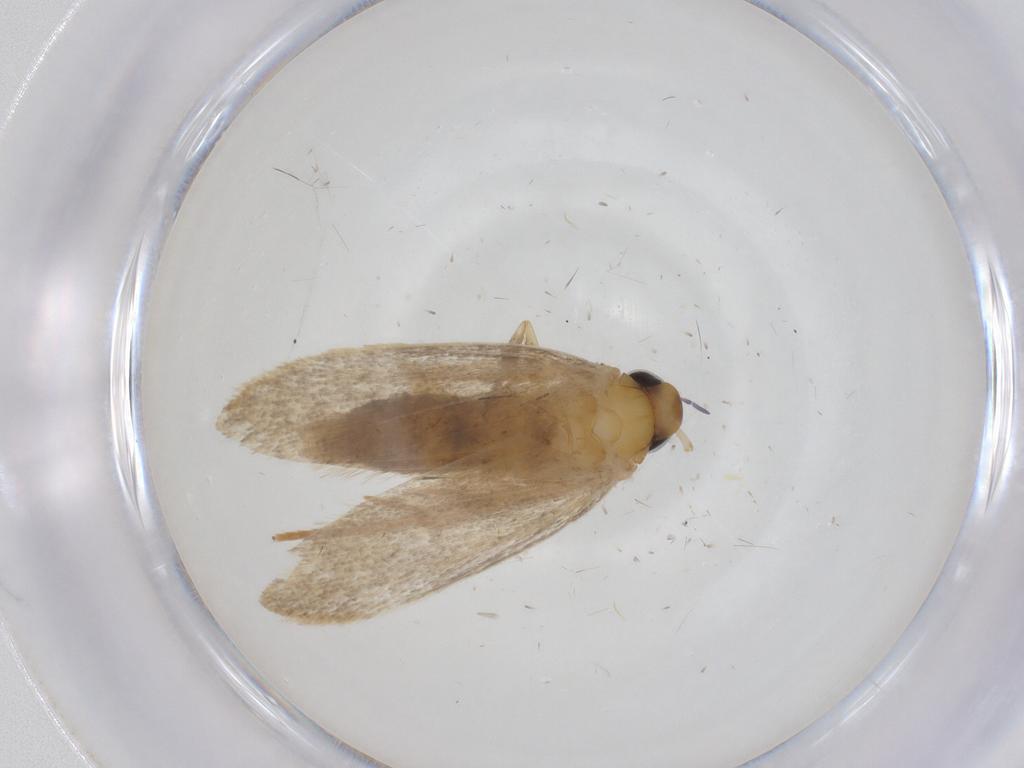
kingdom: Animalia
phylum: Arthropoda
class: Insecta
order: Lepidoptera
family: Oecophoridae
